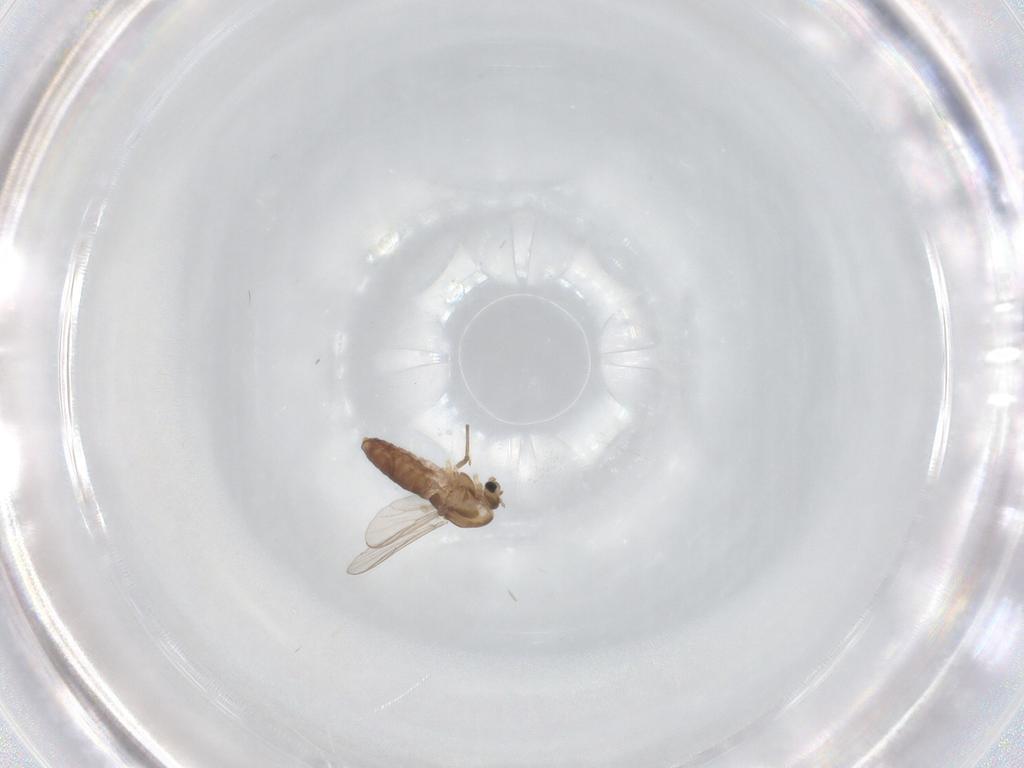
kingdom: Animalia
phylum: Arthropoda
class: Insecta
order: Diptera
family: Chironomidae
